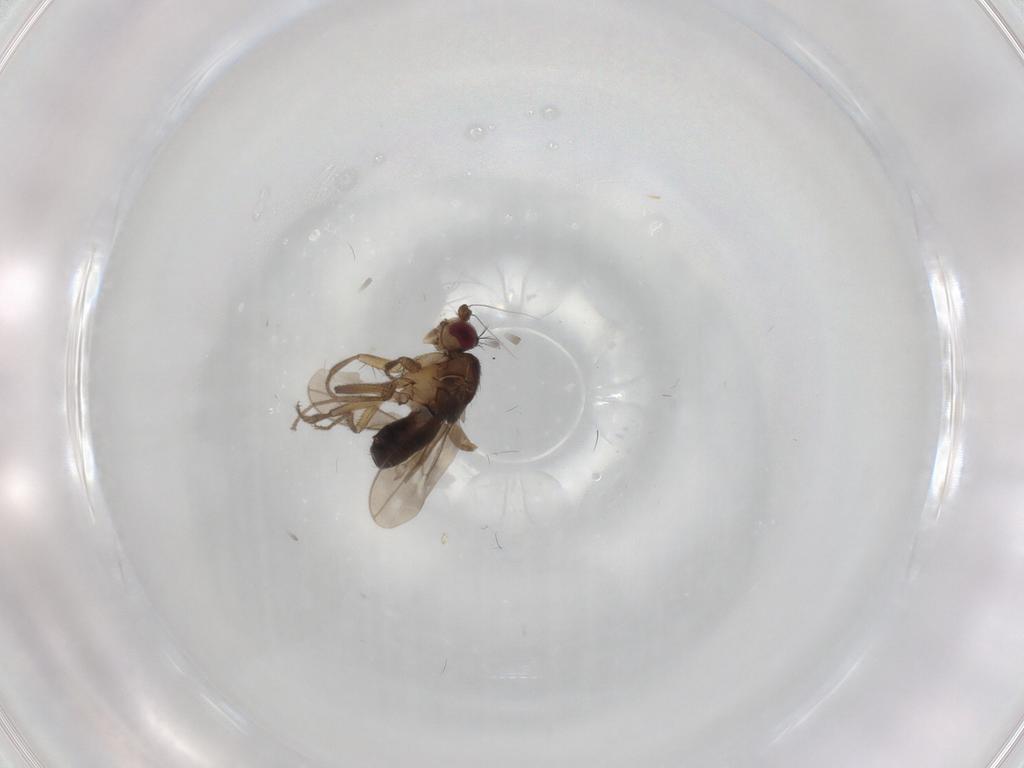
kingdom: Animalia
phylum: Arthropoda
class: Insecta
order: Diptera
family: Sphaeroceridae
